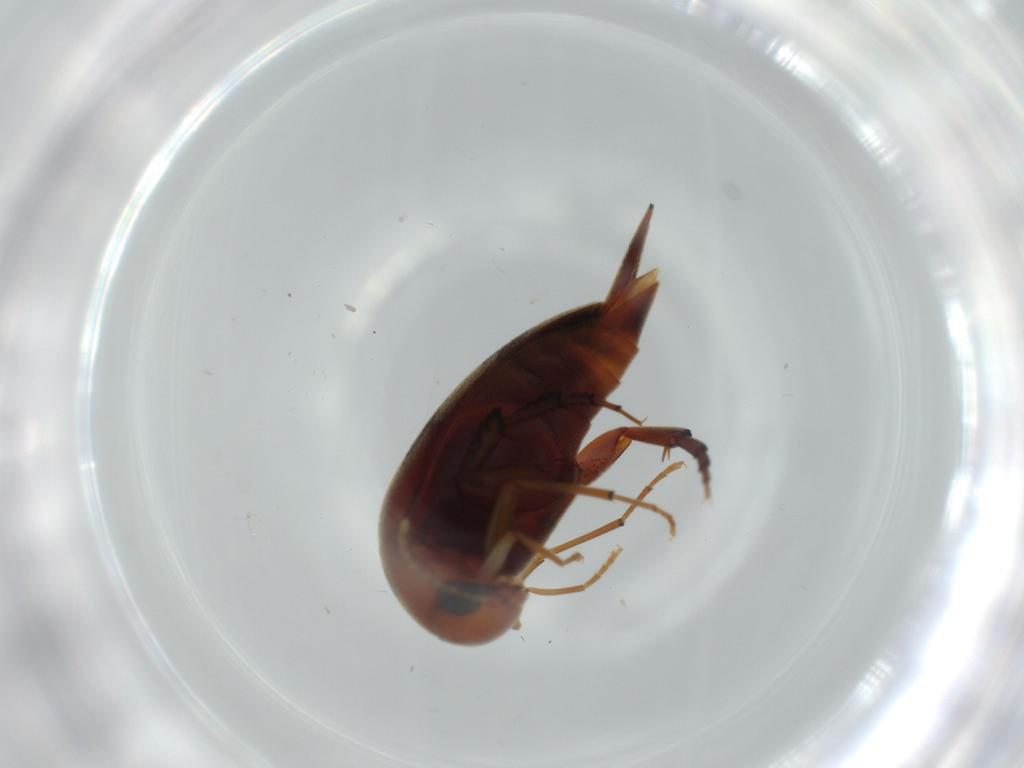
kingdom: Animalia
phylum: Arthropoda
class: Insecta
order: Coleoptera
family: Mordellidae
